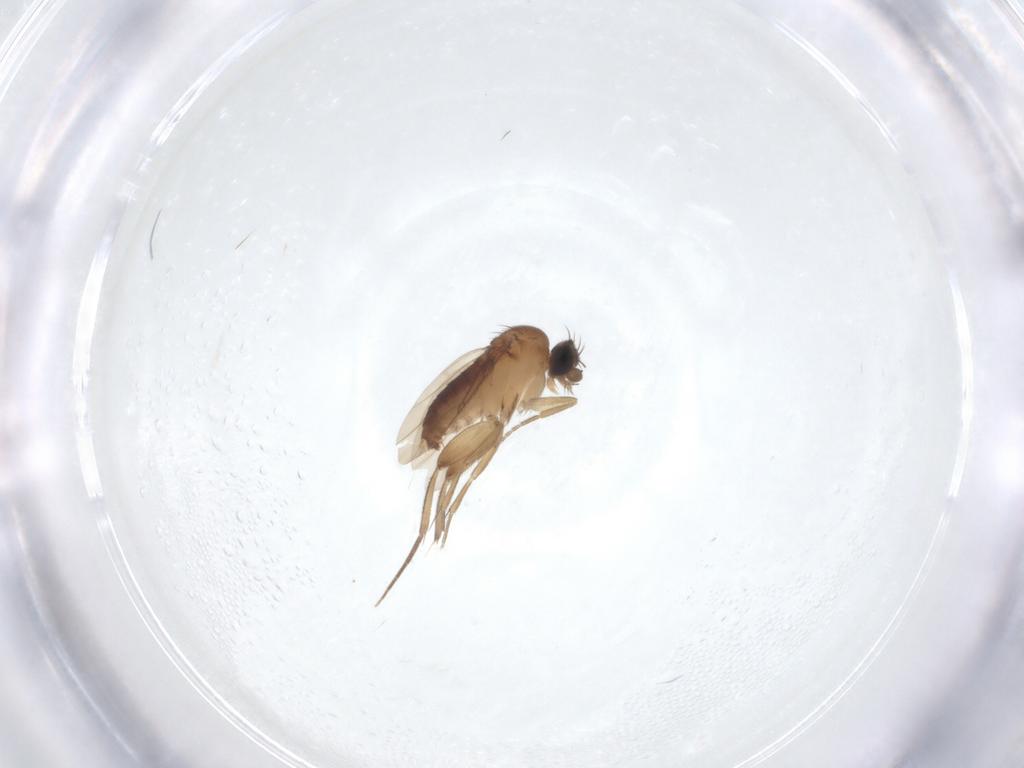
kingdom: Animalia
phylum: Arthropoda
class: Insecta
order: Diptera
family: Phoridae
